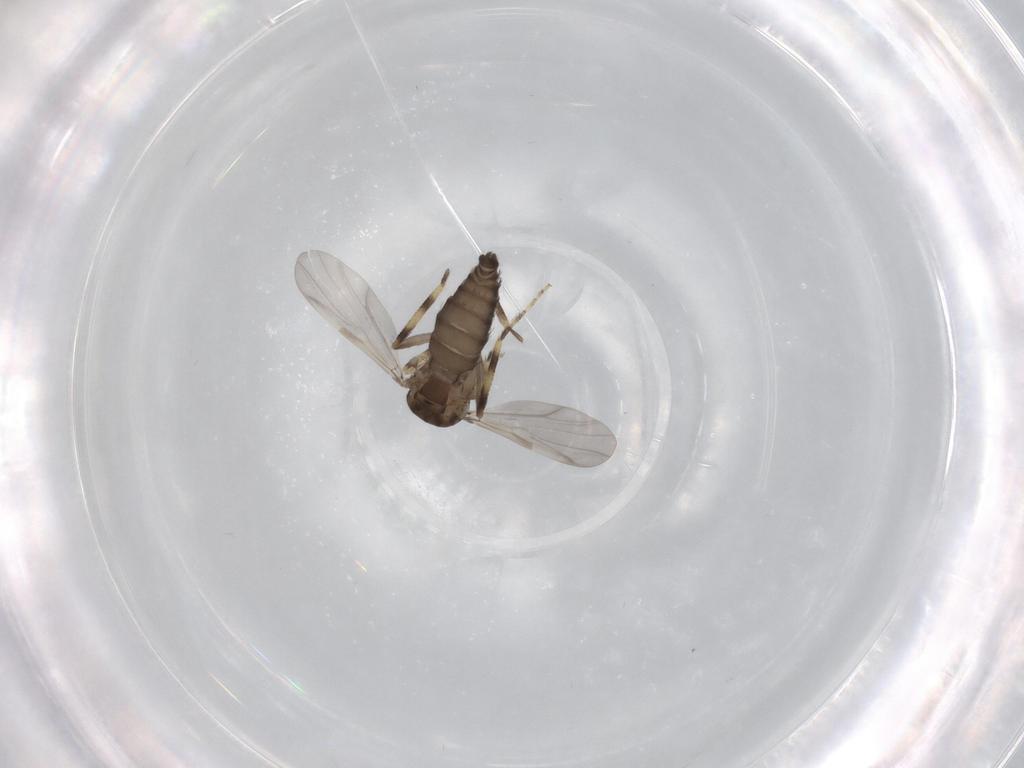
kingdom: Animalia
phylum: Arthropoda
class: Insecta
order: Diptera
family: Ceratopogonidae
